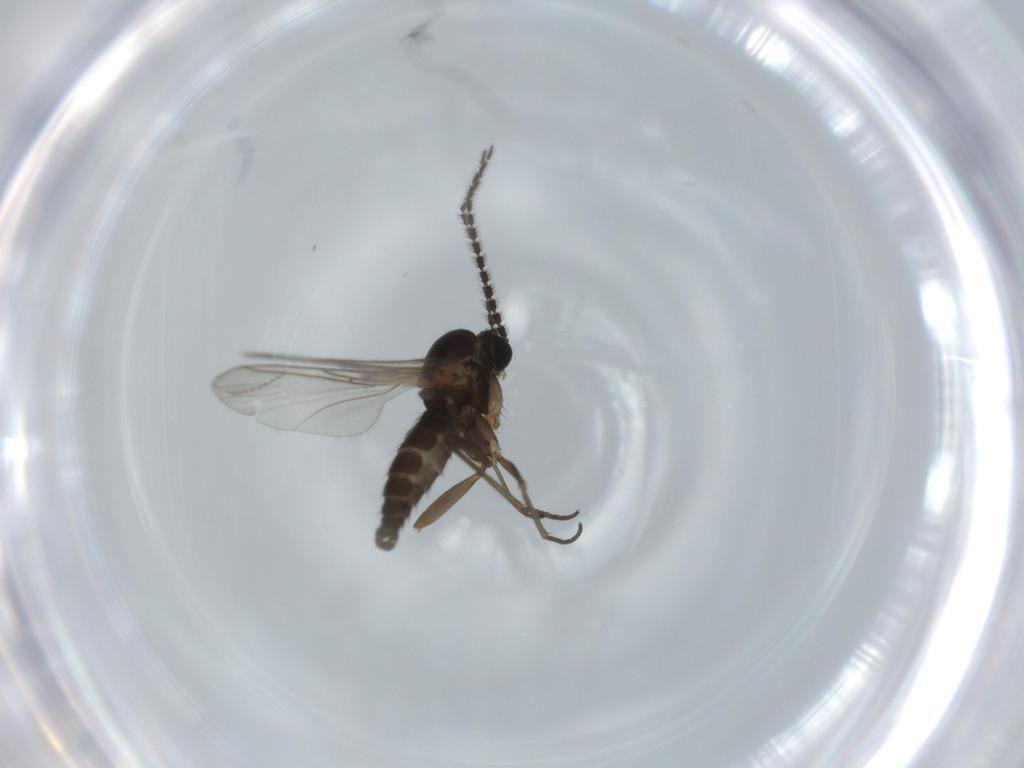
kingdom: Animalia
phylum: Arthropoda
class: Insecta
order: Diptera
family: Sciaridae
